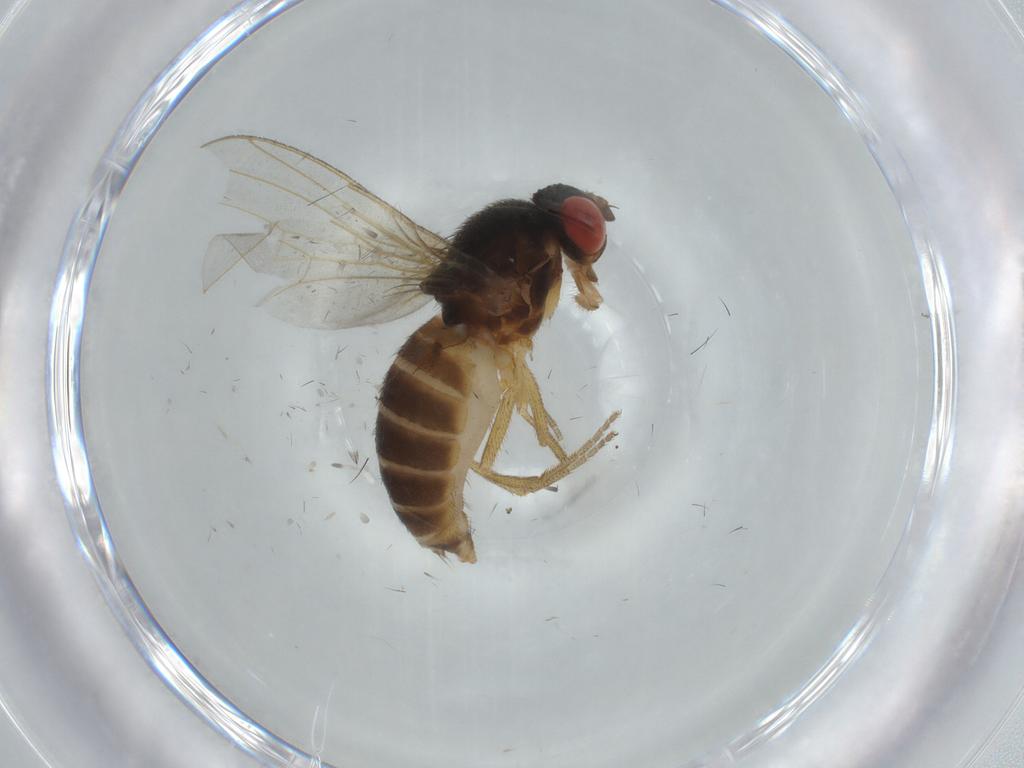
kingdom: Animalia
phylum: Arthropoda
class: Insecta
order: Diptera
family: Drosophilidae
